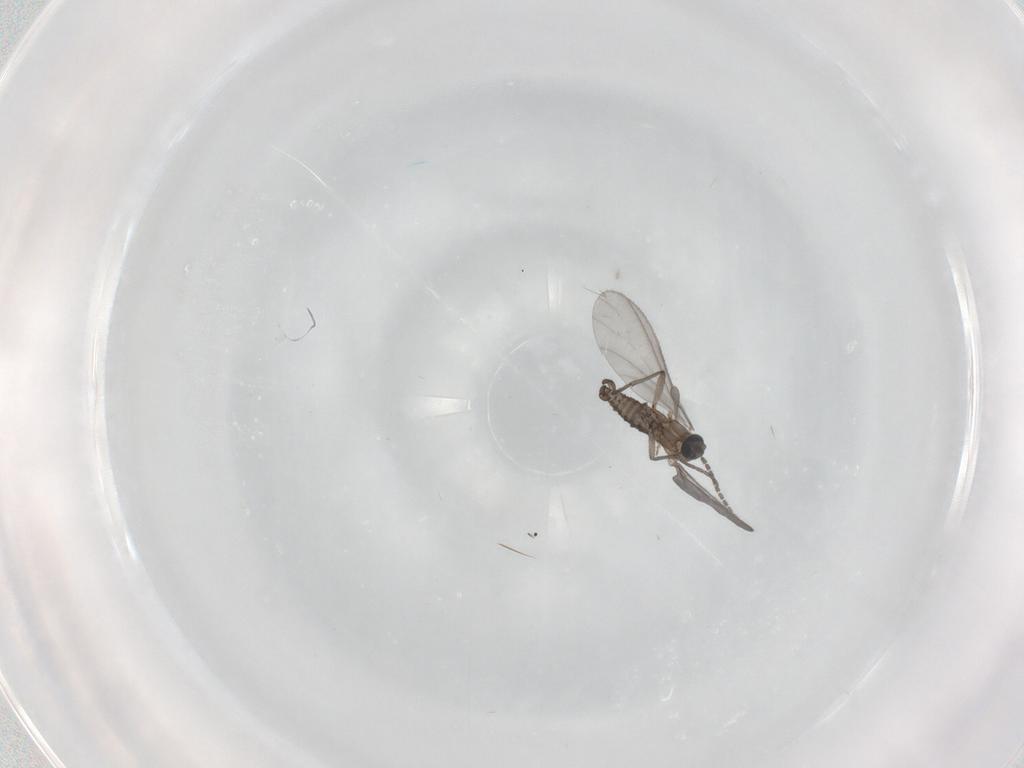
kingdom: Animalia
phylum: Arthropoda
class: Insecta
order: Diptera
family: Sciaridae
